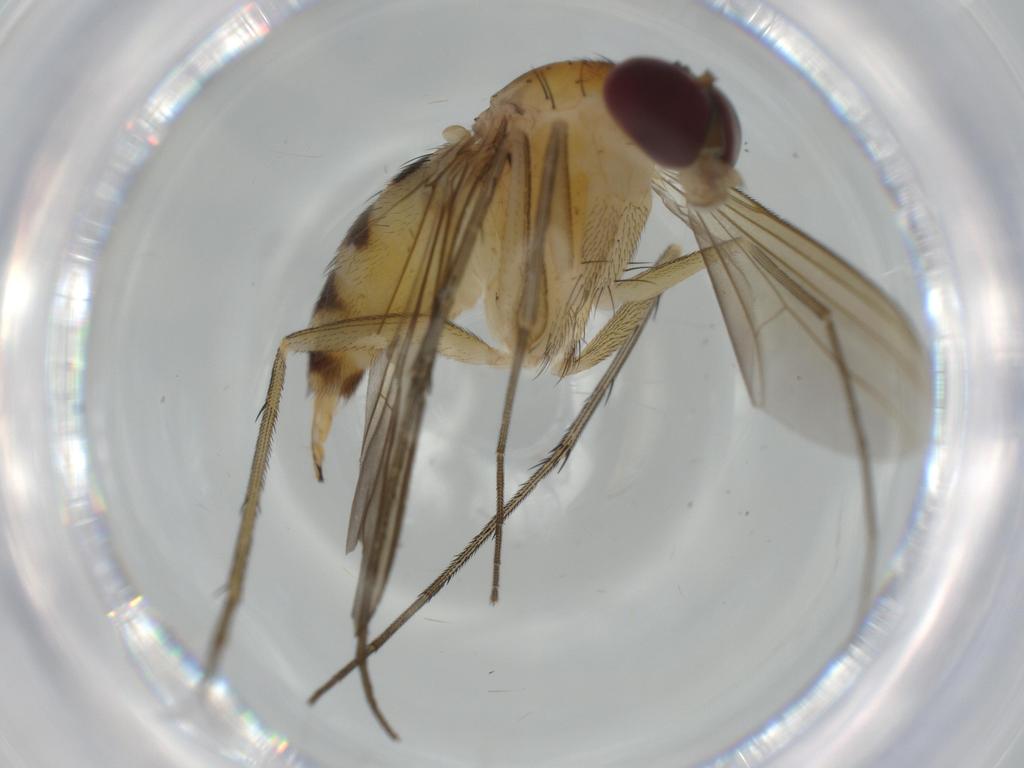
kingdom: Animalia
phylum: Arthropoda
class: Insecta
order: Diptera
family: Dolichopodidae
